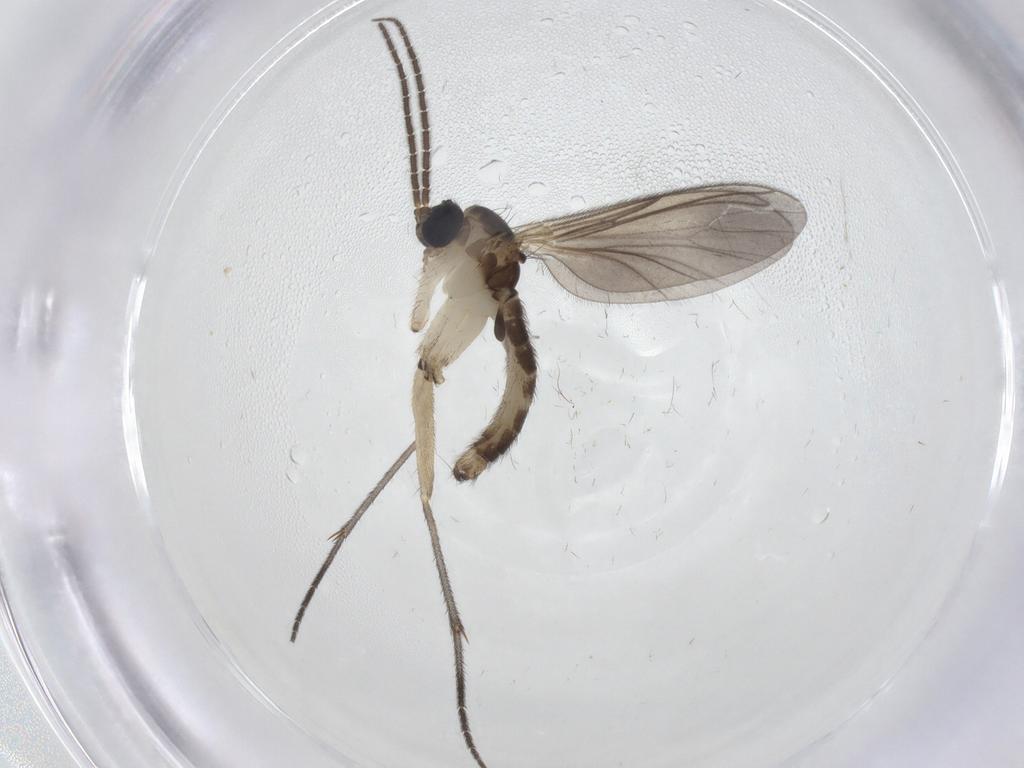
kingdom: Animalia
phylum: Arthropoda
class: Insecta
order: Diptera
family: Sciaridae
